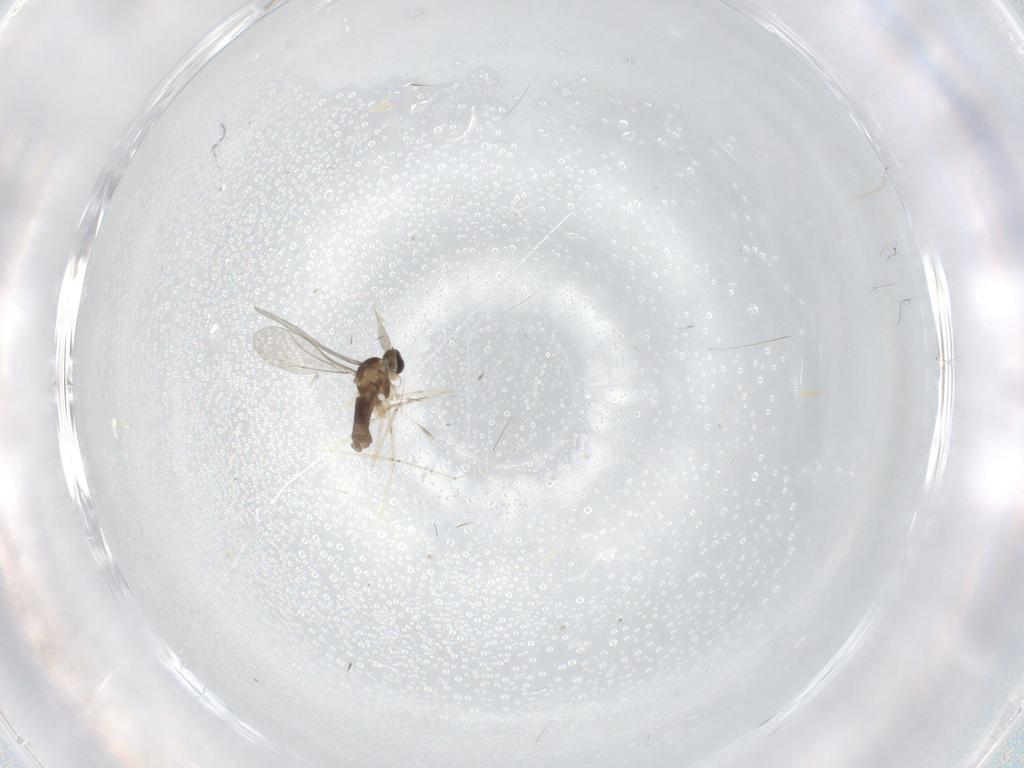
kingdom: Animalia
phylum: Arthropoda
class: Insecta
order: Diptera
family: Cecidomyiidae
